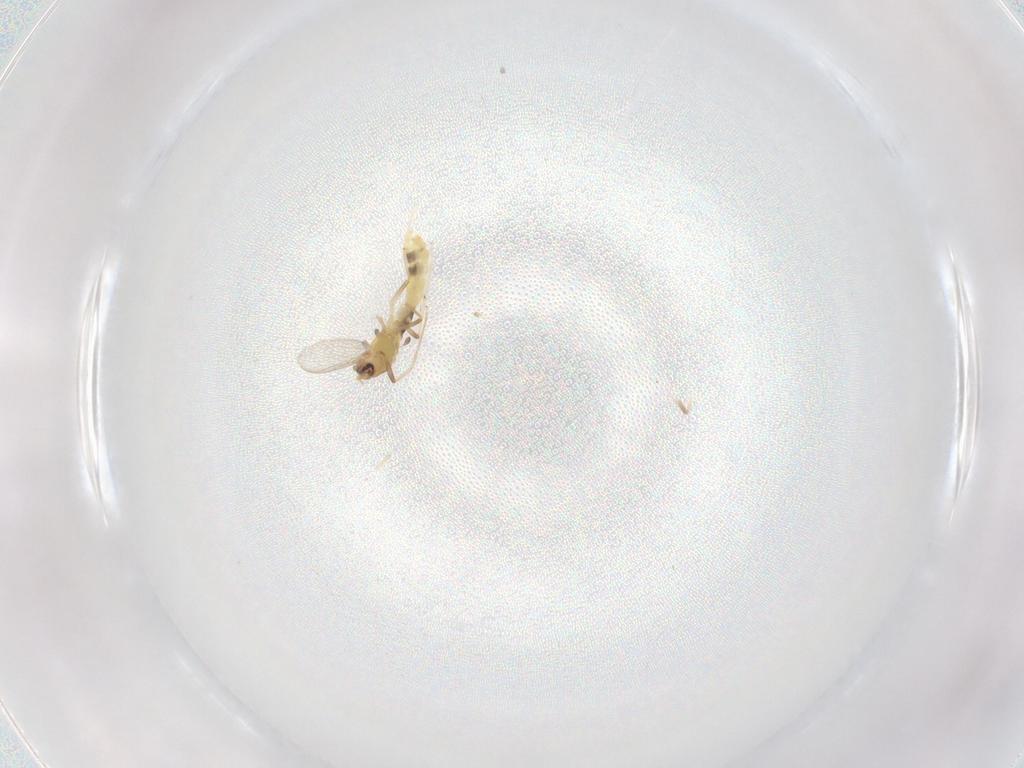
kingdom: Animalia
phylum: Arthropoda
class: Insecta
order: Diptera
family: Chironomidae
